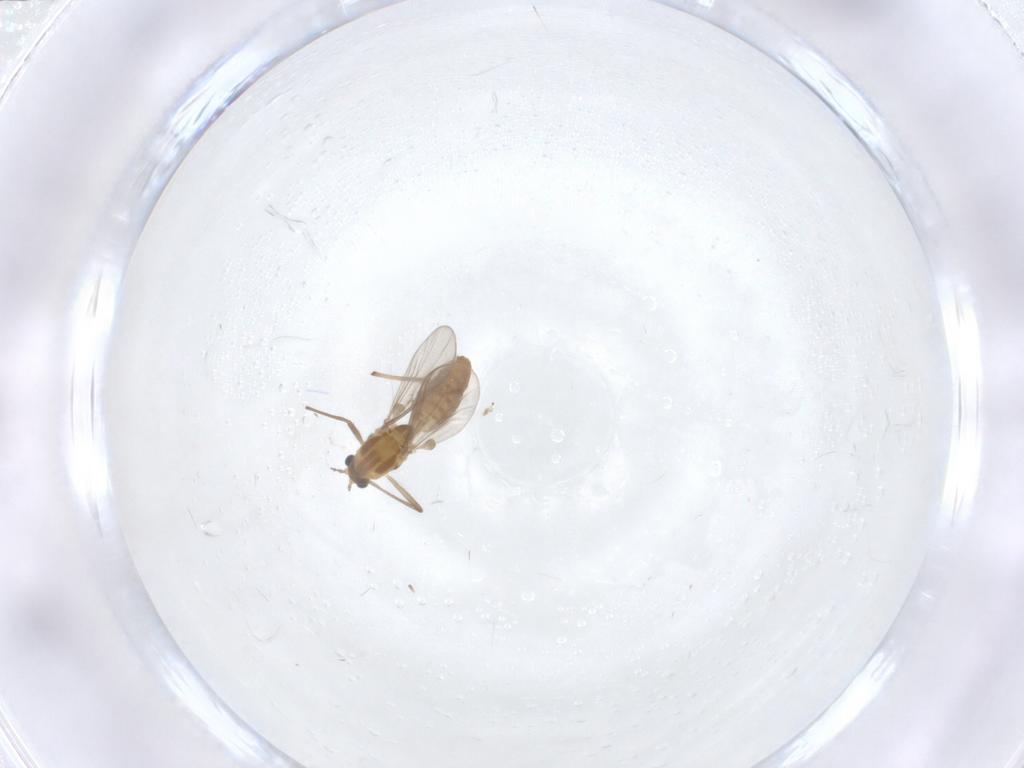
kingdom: Animalia
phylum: Arthropoda
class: Insecta
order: Diptera
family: Chironomidae
